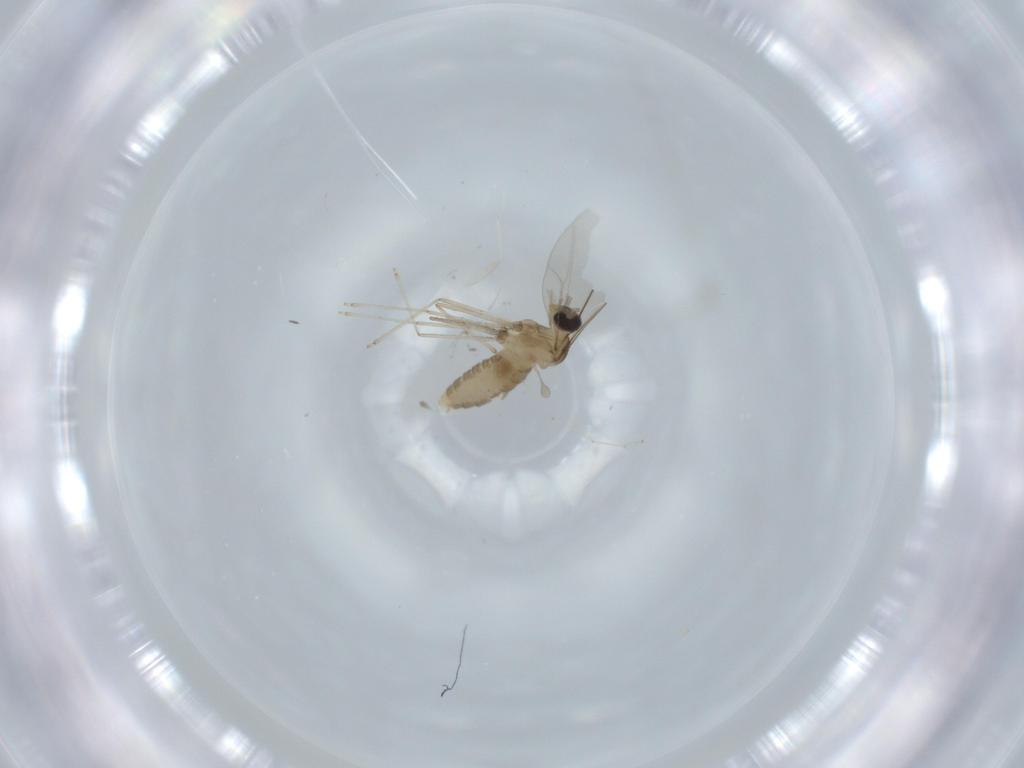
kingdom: Animalia
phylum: Arthropoda
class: Insecta
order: Diptera
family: Cecidomyiidae
